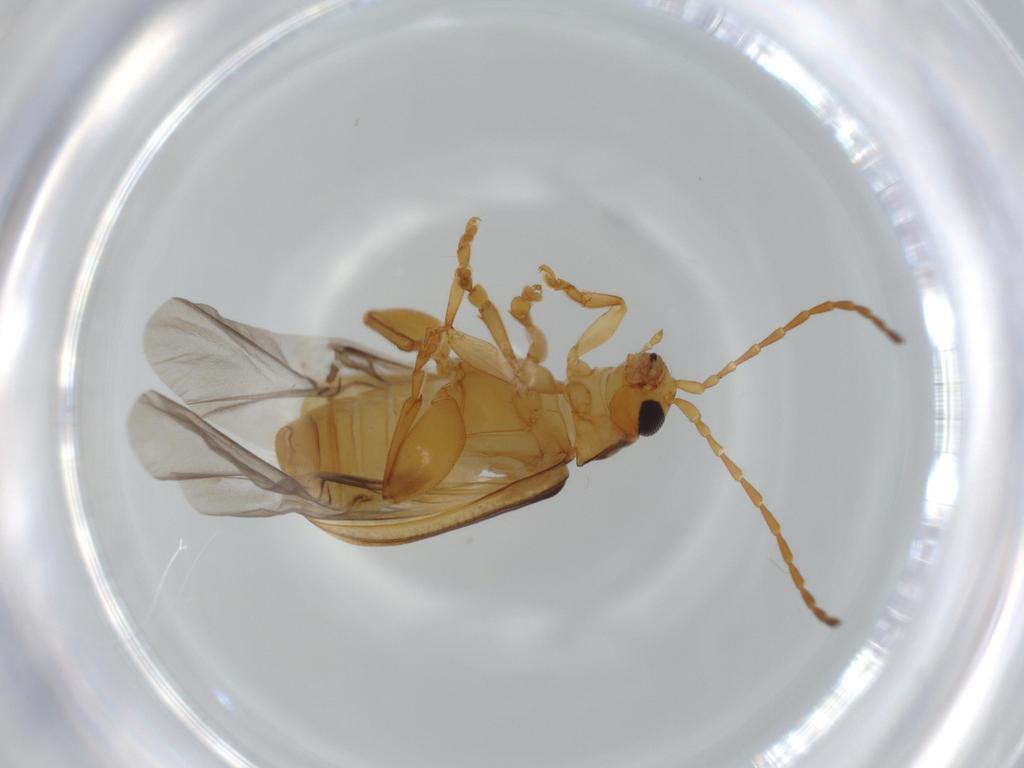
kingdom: Animalia
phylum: Arthropoda
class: Insecta
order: Coleoptera
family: Chrysomelidae
